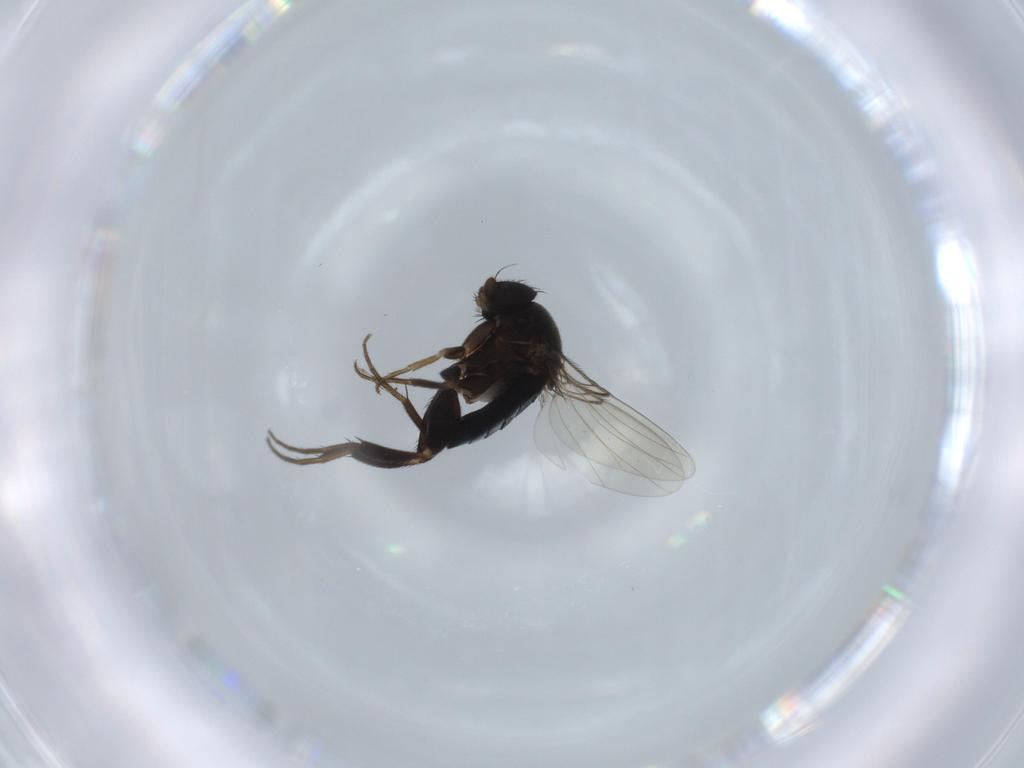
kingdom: Animalia
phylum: Arthropoda
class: Insecta
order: Diptera
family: Phoridae
